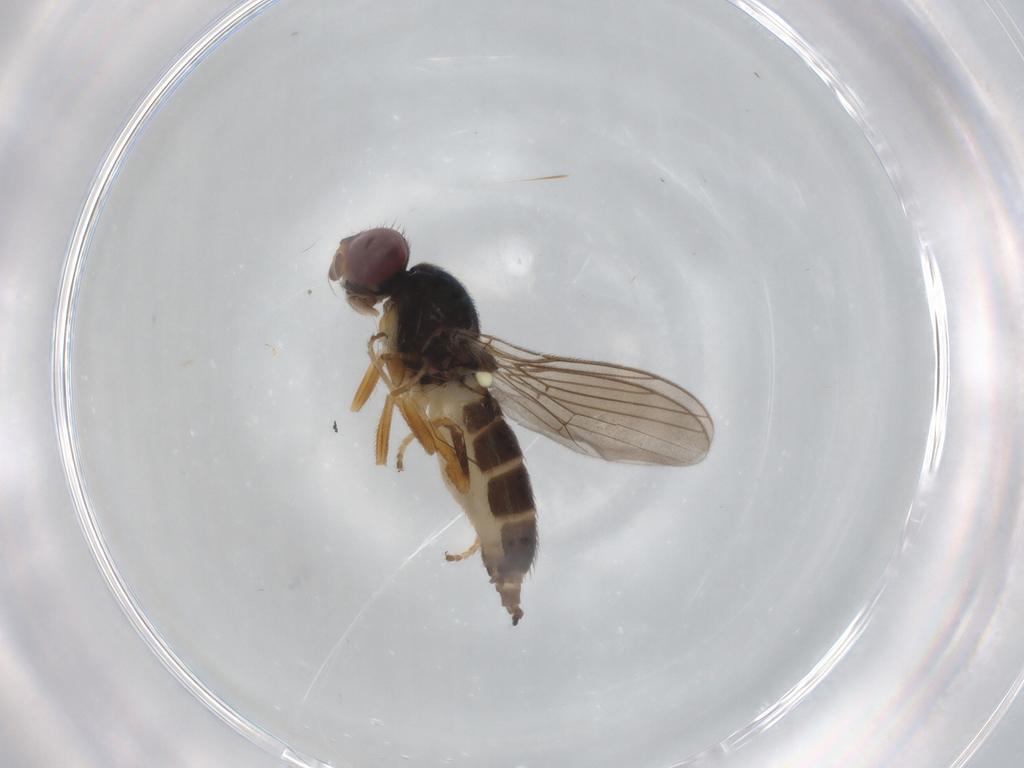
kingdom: Animalia
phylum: Arthropoda
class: Insecta
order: Diptera
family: Chloropidae
